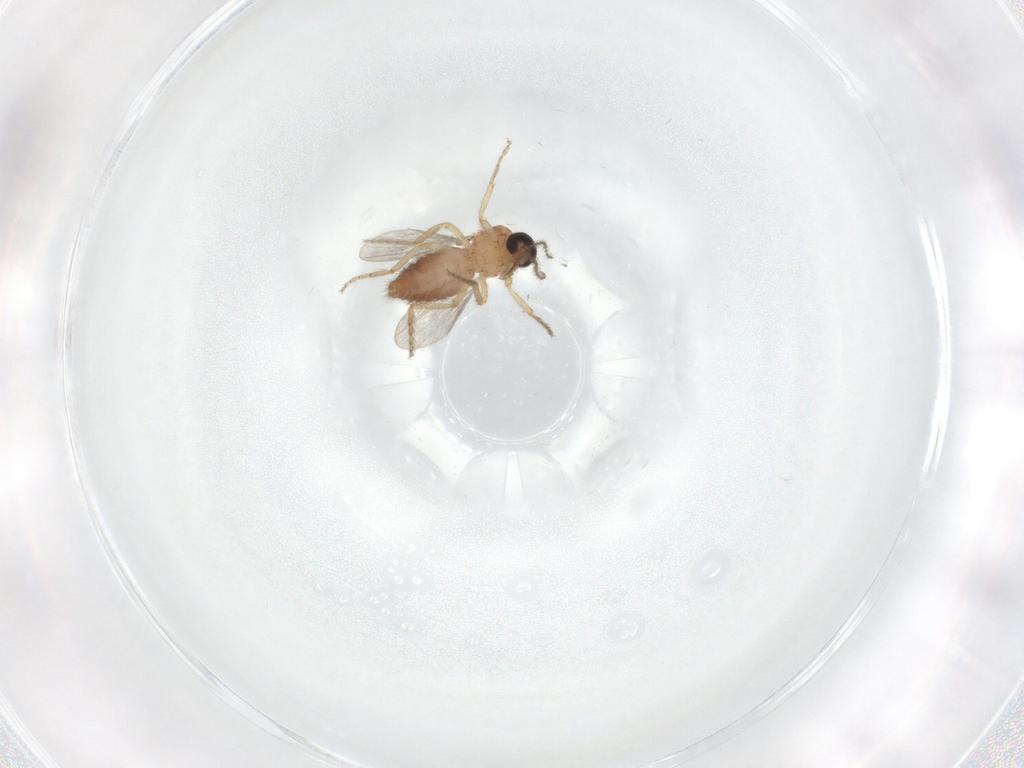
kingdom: Animalia
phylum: Arthropoda
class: Insecta
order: Diptera
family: Ceratopogonidae
